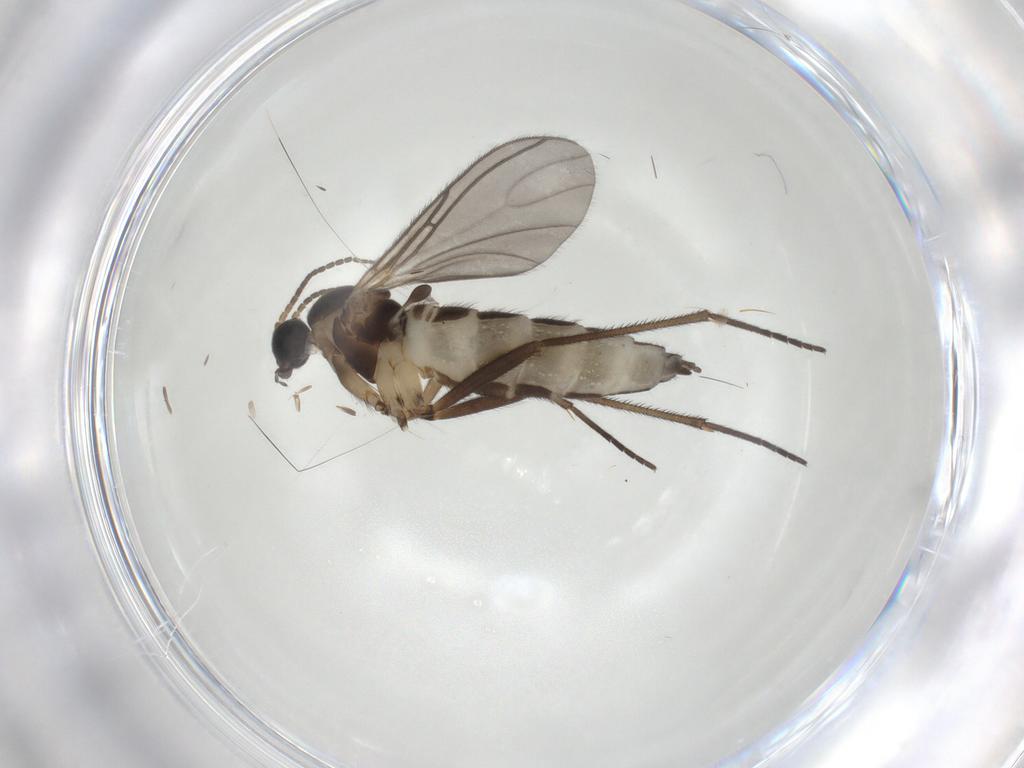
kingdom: Animalia
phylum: Arthropoda
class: Insecta
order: Diptera
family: Sciaridae
